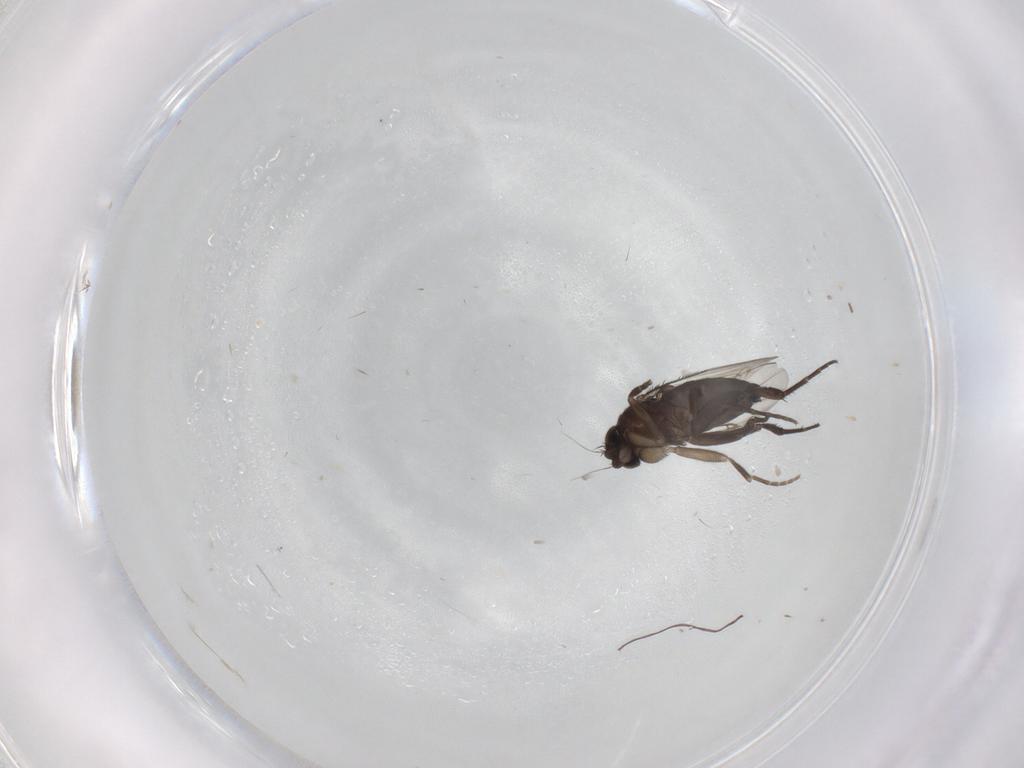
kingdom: Animalia
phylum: Arthropoda
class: Insecta
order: Diptera
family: Phoridae
